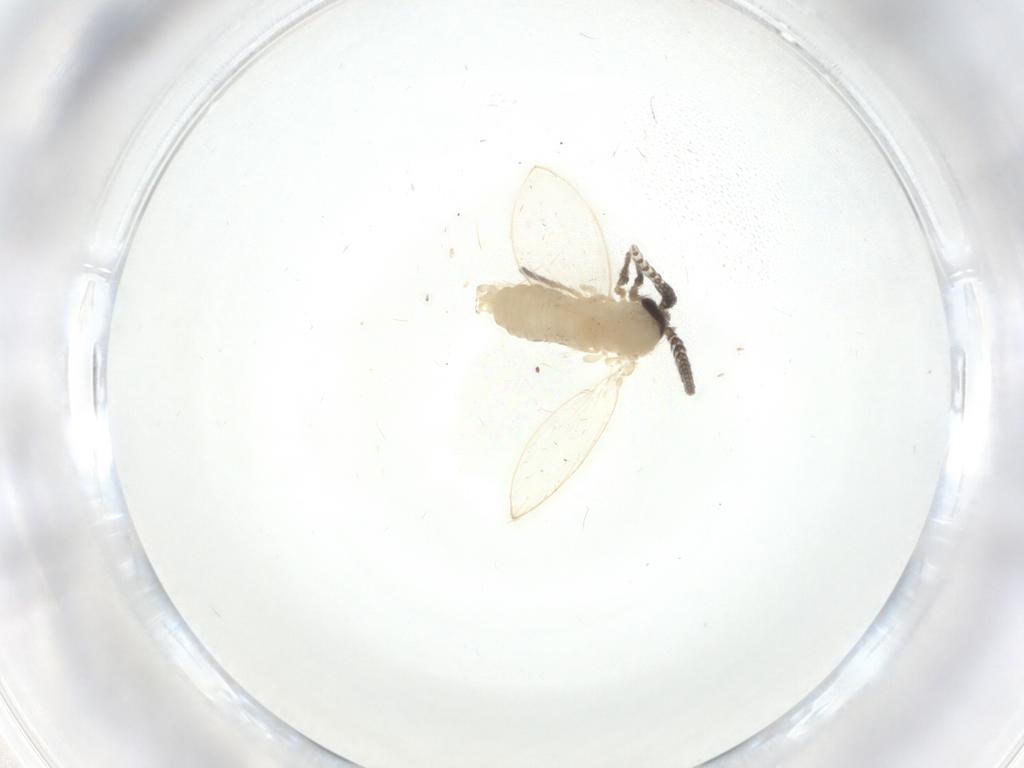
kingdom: Animalia
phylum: Arthropoda
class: Insecta
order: Diptera
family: Psychodidae
